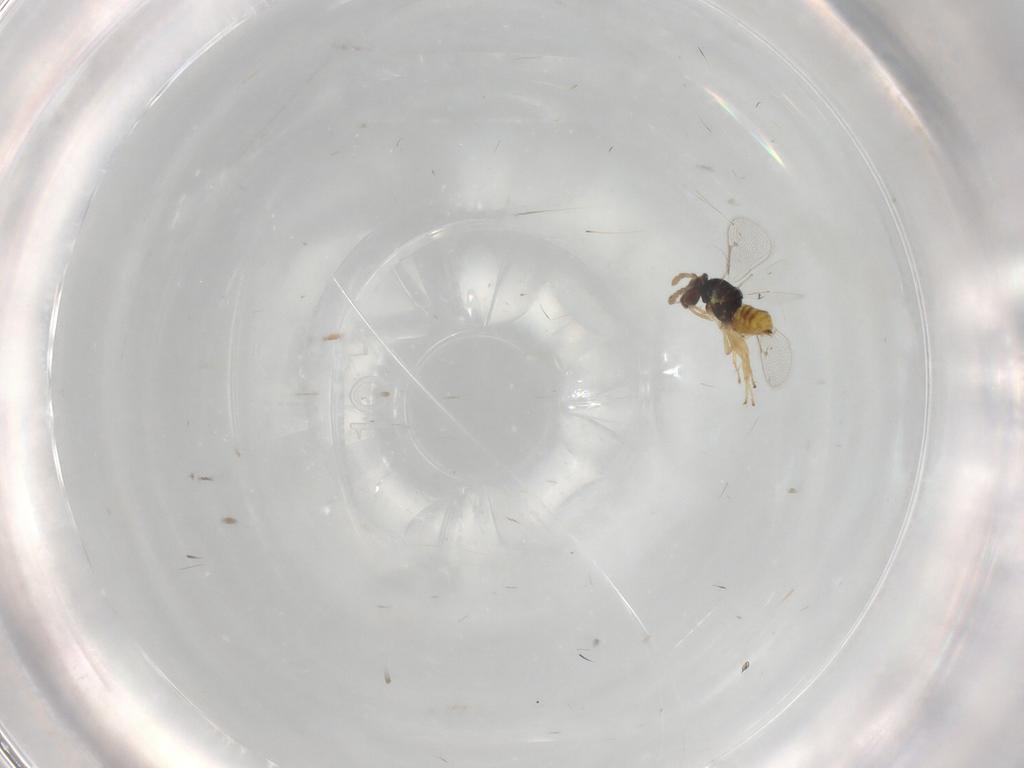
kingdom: Animalia
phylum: Arthropoda
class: Insecta
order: Hymenoptera
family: Eulophidae
